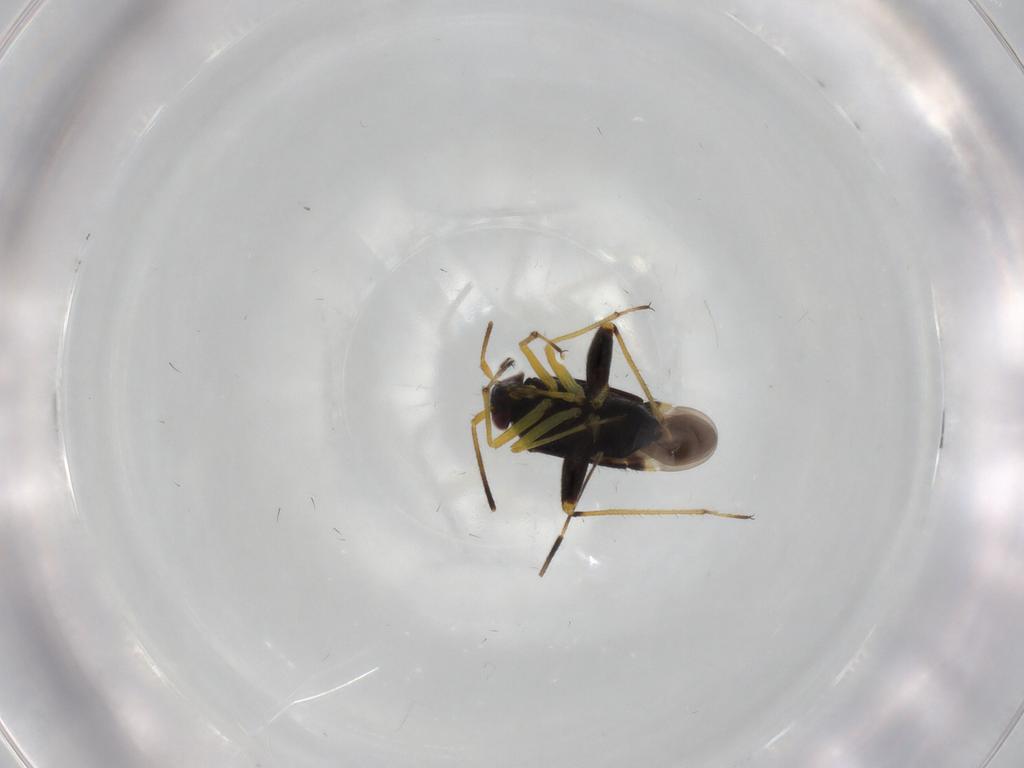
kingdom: Animalia
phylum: Arthropoda
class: Insecta
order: Hemiptera
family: Miridae
